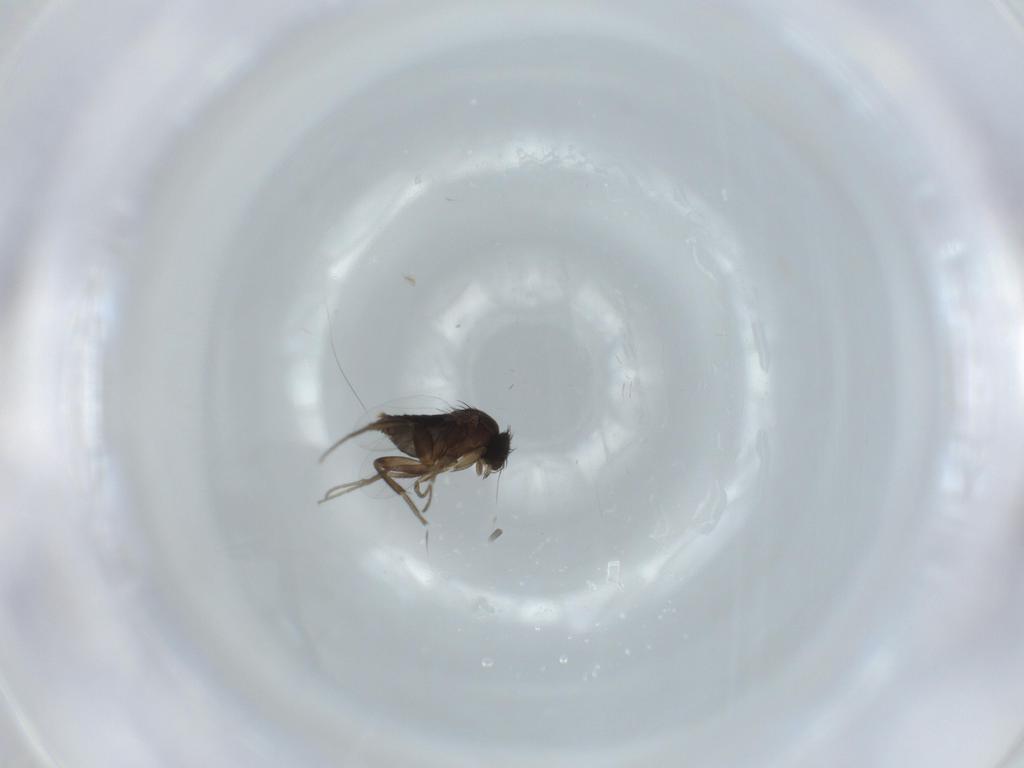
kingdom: Animalia
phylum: Arthropoda
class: Insecta
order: Diptera
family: Phoridae
